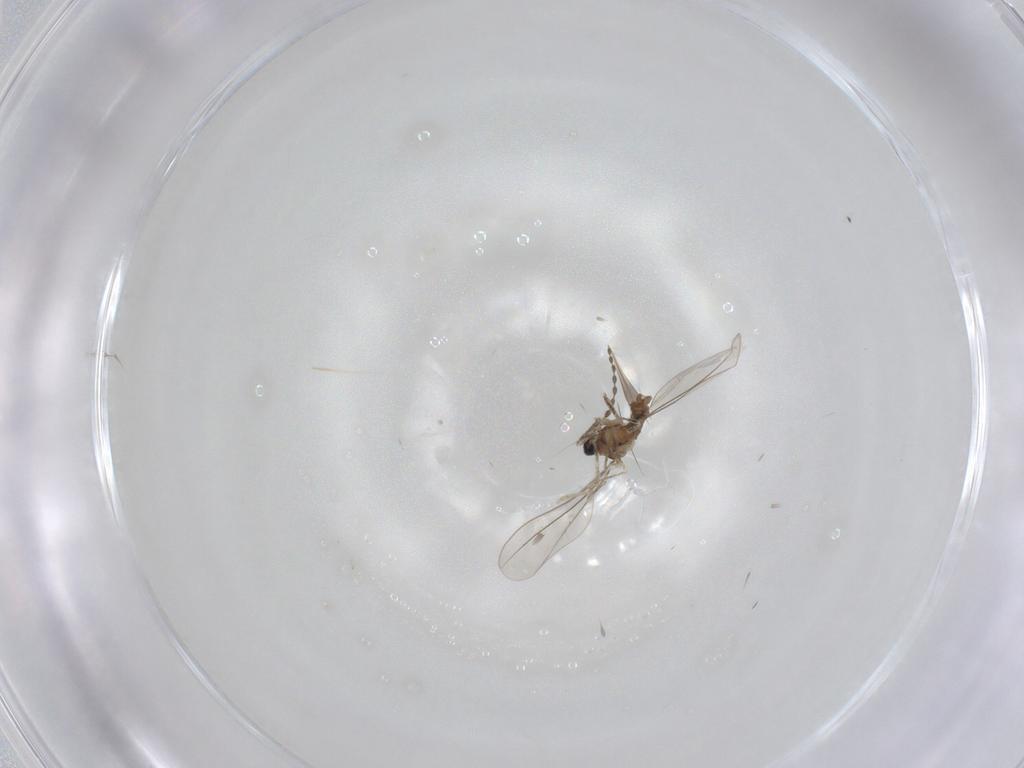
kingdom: Animalia
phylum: Arthropoda
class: Insecta
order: Diptera
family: Cecidomyiidae
